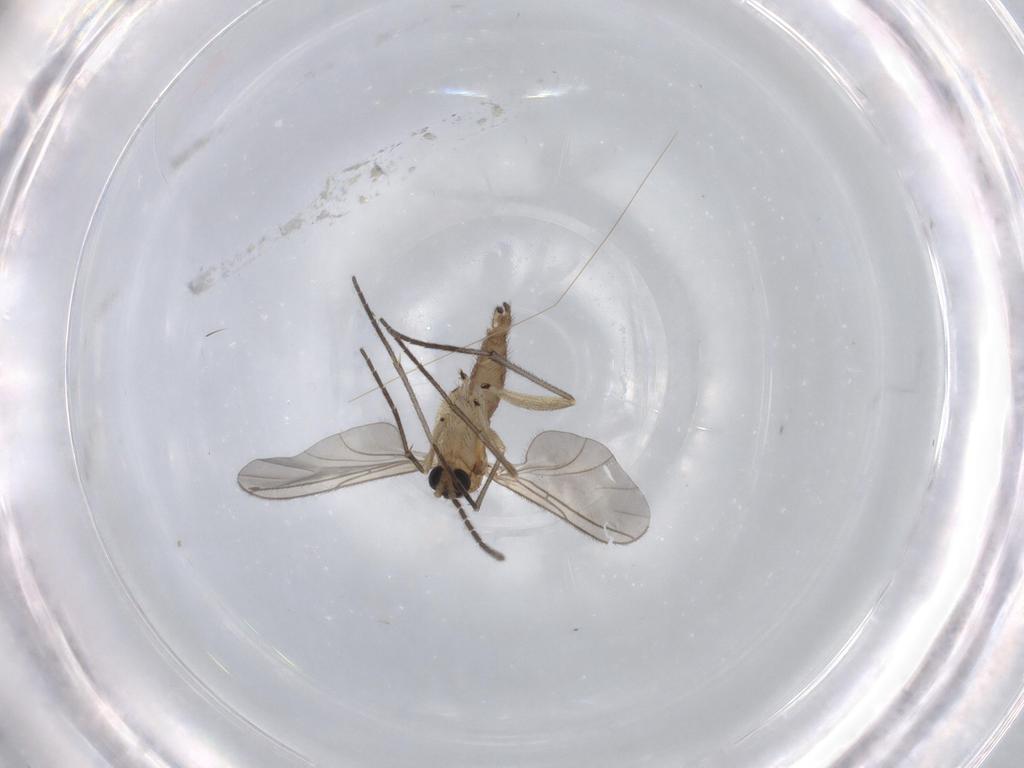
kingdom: Animalia
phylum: Arthropoda
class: Insecta
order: Diptera
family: Sciaridae
